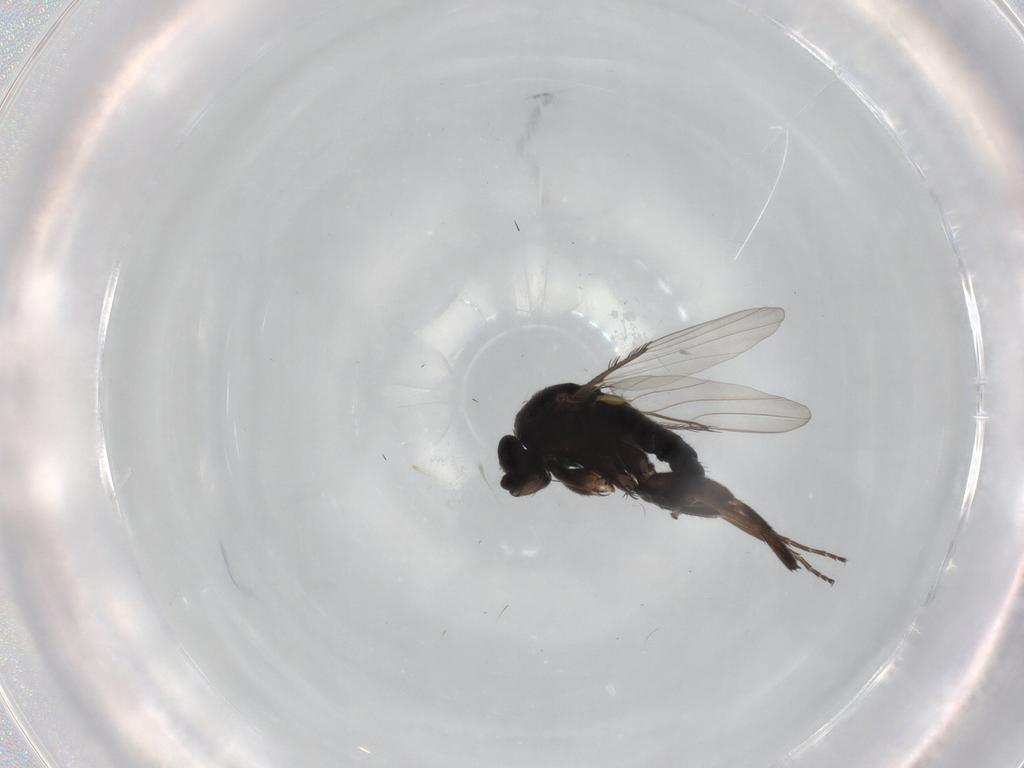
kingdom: Animalia
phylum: Arthropoda
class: Insecta
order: Diptera
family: Phoridae
